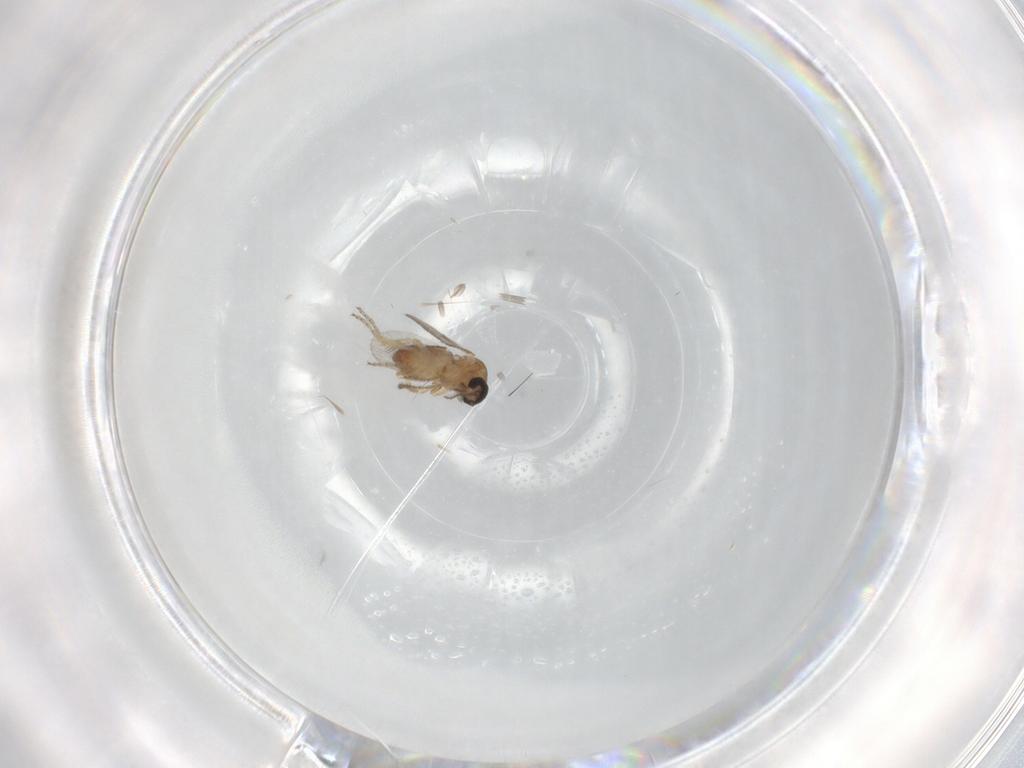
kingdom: Animalia
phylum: Arthropoda
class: Insecta
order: Diptera
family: Ceratopogonidae
